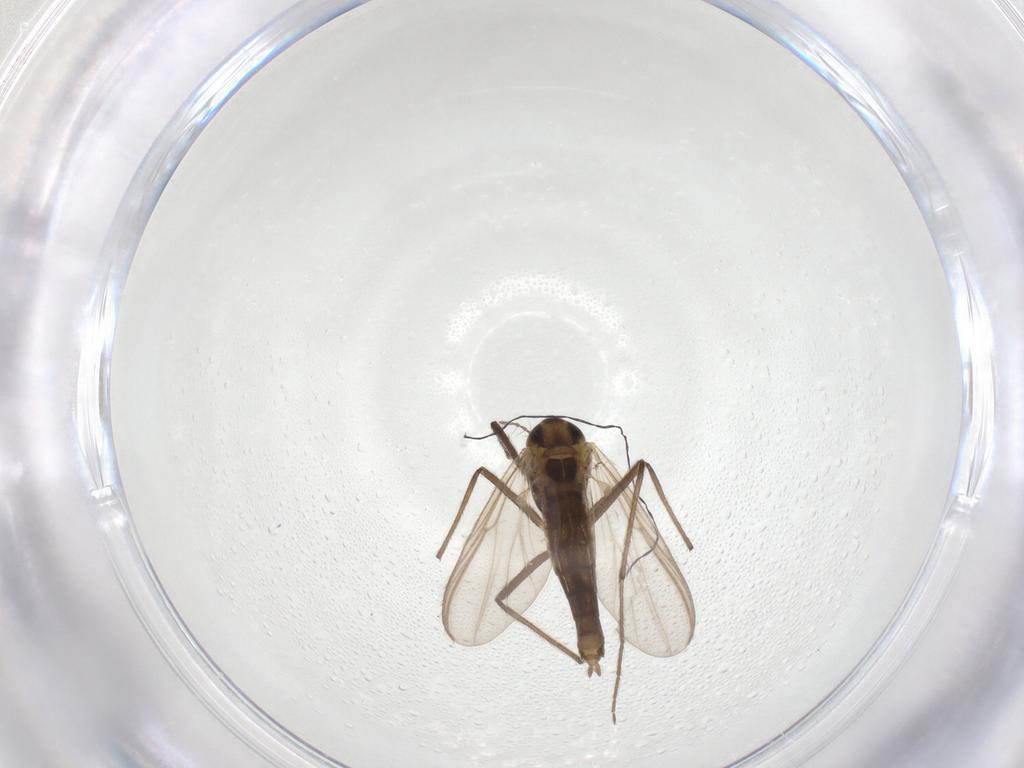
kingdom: Animalia
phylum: Arthropoda
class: Insecta
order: Diptera
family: Chironomidae
